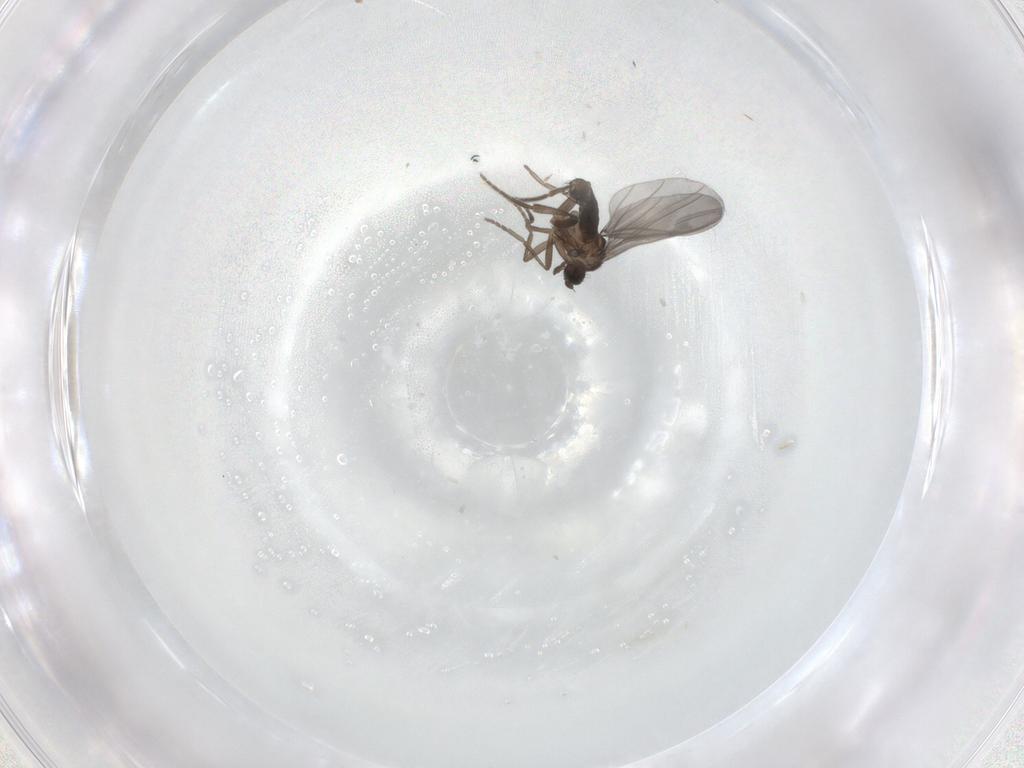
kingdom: Animalia
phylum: Arthropoda
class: Insecta
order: Diptera
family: Phoridae
